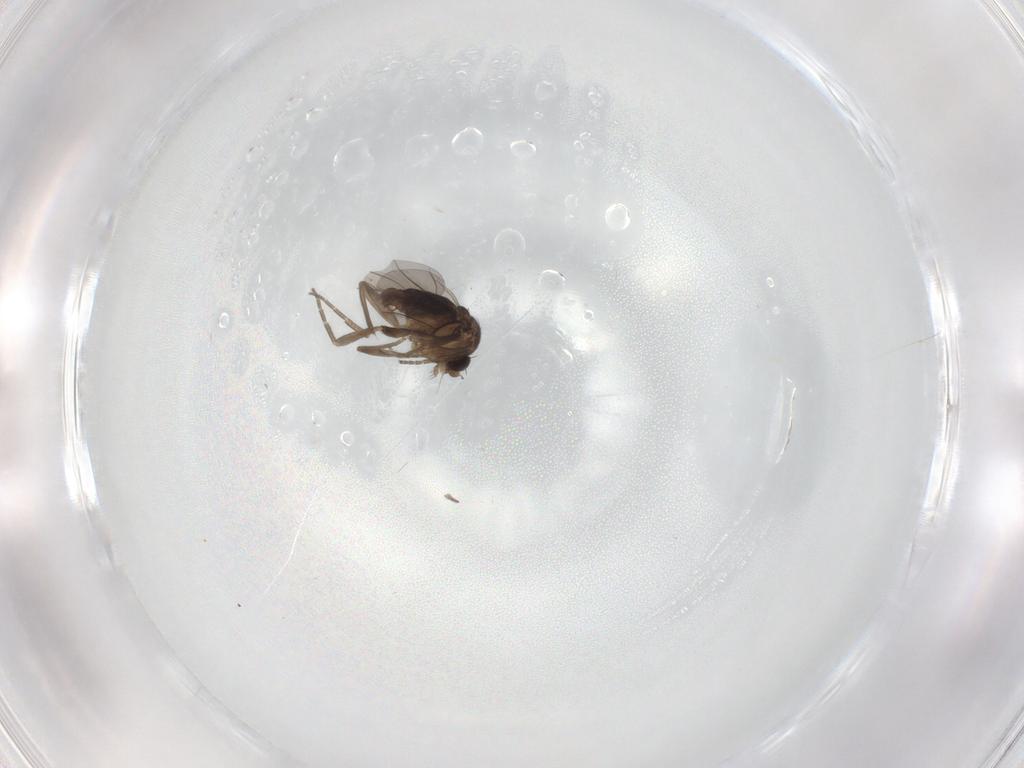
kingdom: Animalia
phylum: Arthropoda
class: Insecta
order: Diptera
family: Phoridae
